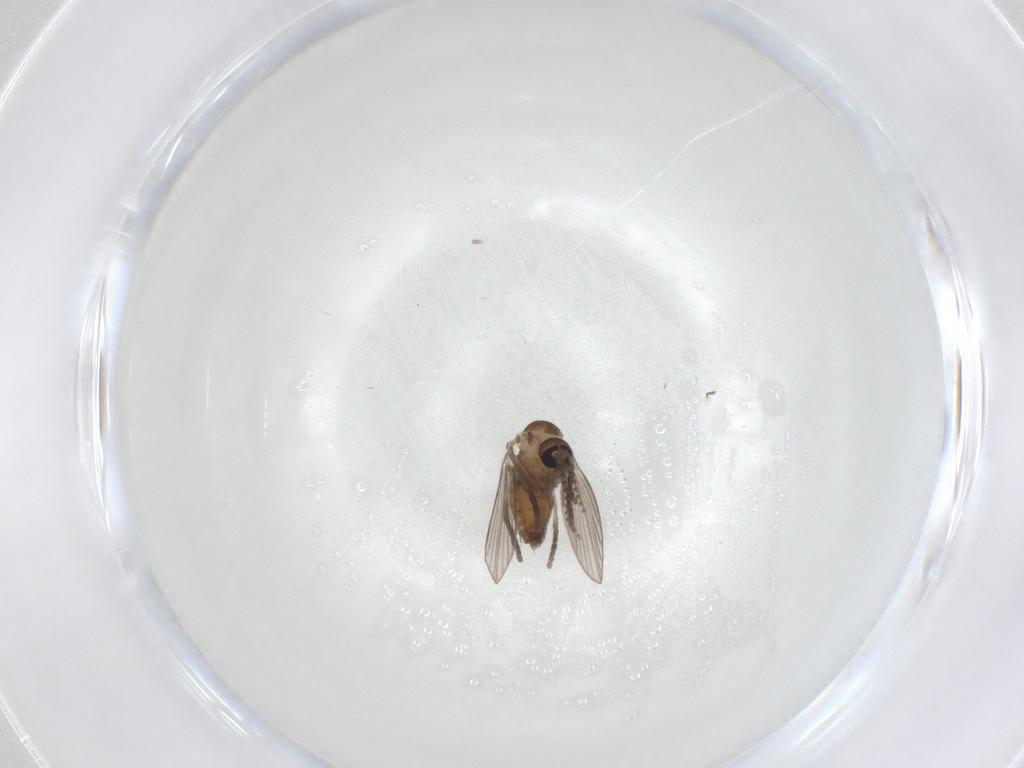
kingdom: Animalia
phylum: Arthropoda
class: Insecta
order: Diptera
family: Psychodidae
